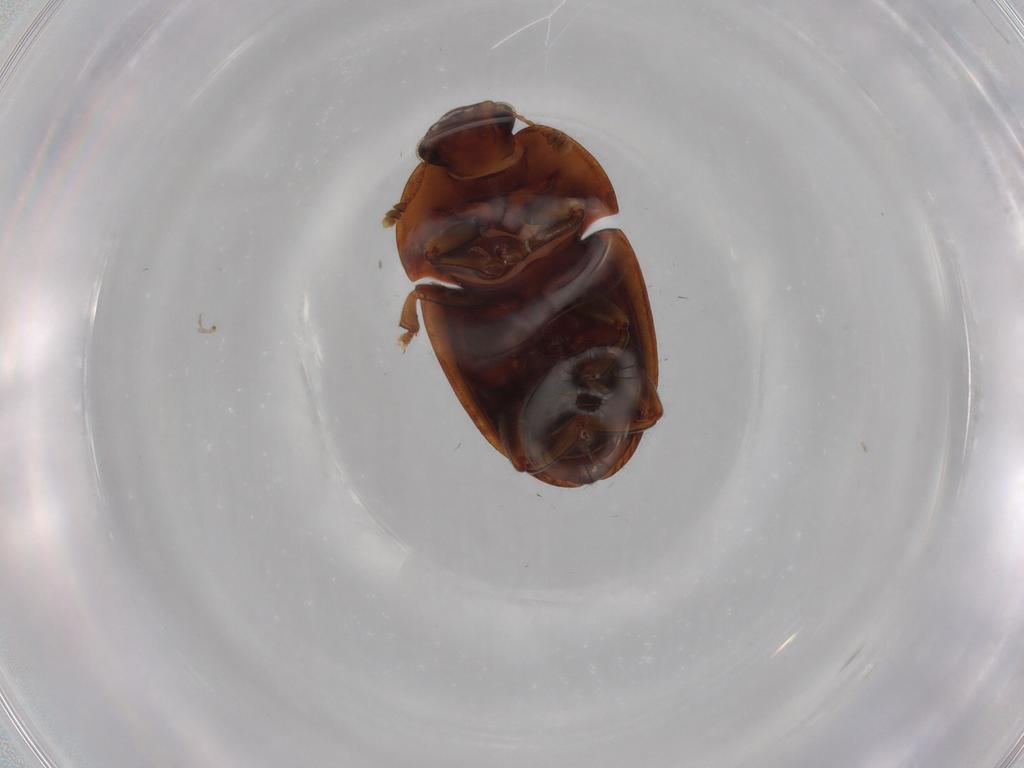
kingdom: Animalia
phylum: Arthropoda
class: Insecta
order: Coleoptera
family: Nitidulidae
